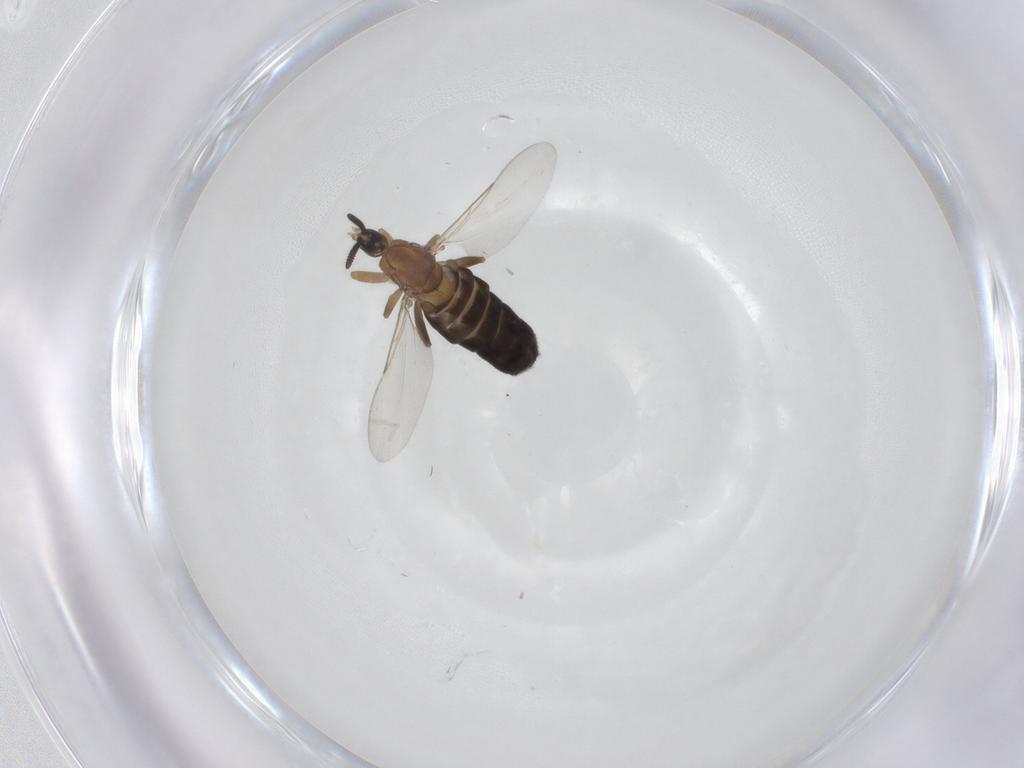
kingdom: Animalia
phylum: Arthropoda
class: Insecta
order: Diptera
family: Scatopsidae
